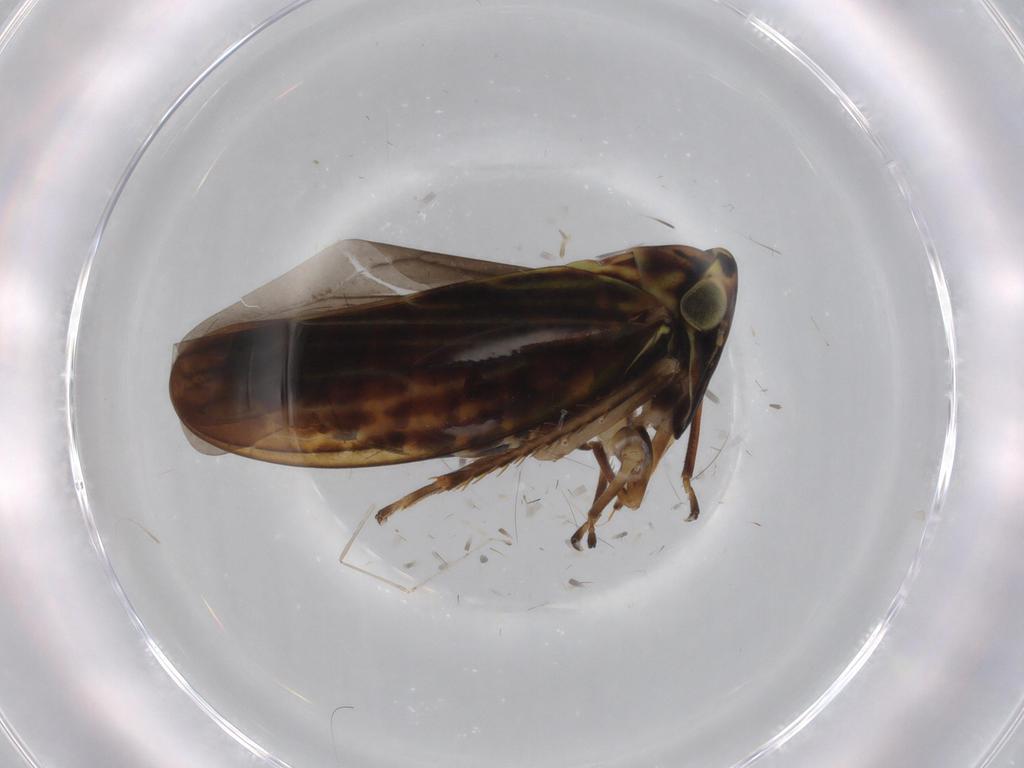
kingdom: Animalia
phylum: Arthropoda
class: Insecta
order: Hemiptera
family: Cicadellidae
